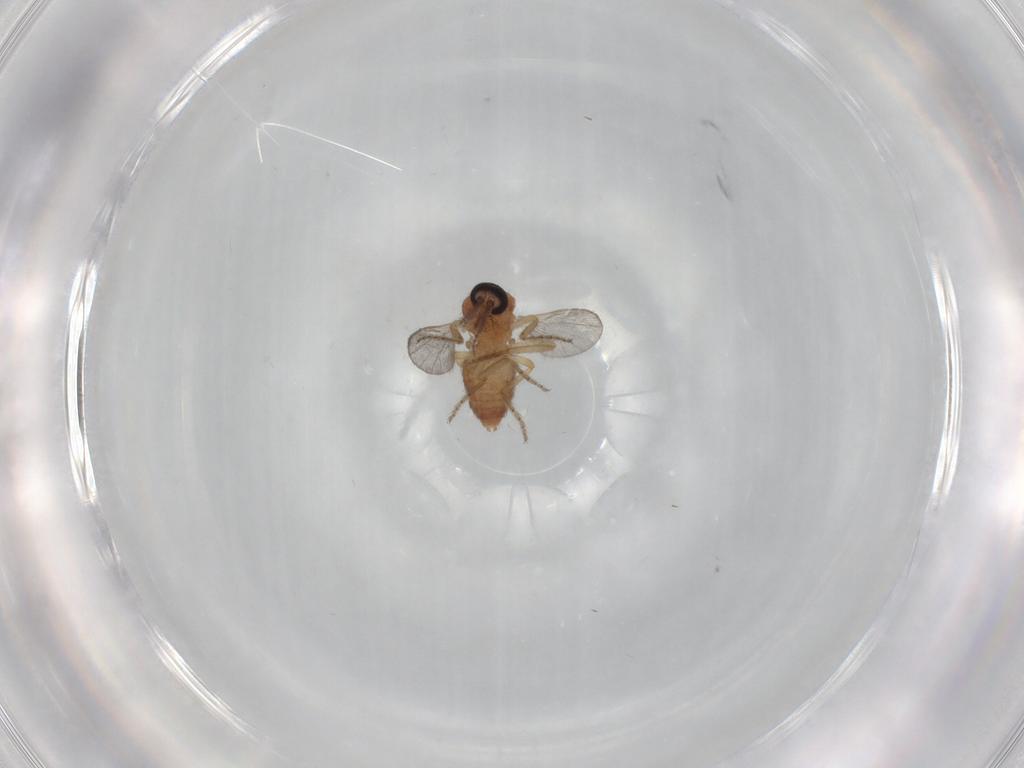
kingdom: Animalia
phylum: Arthropoda
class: Insecta
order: Diptera
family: Ceratopogonidae
